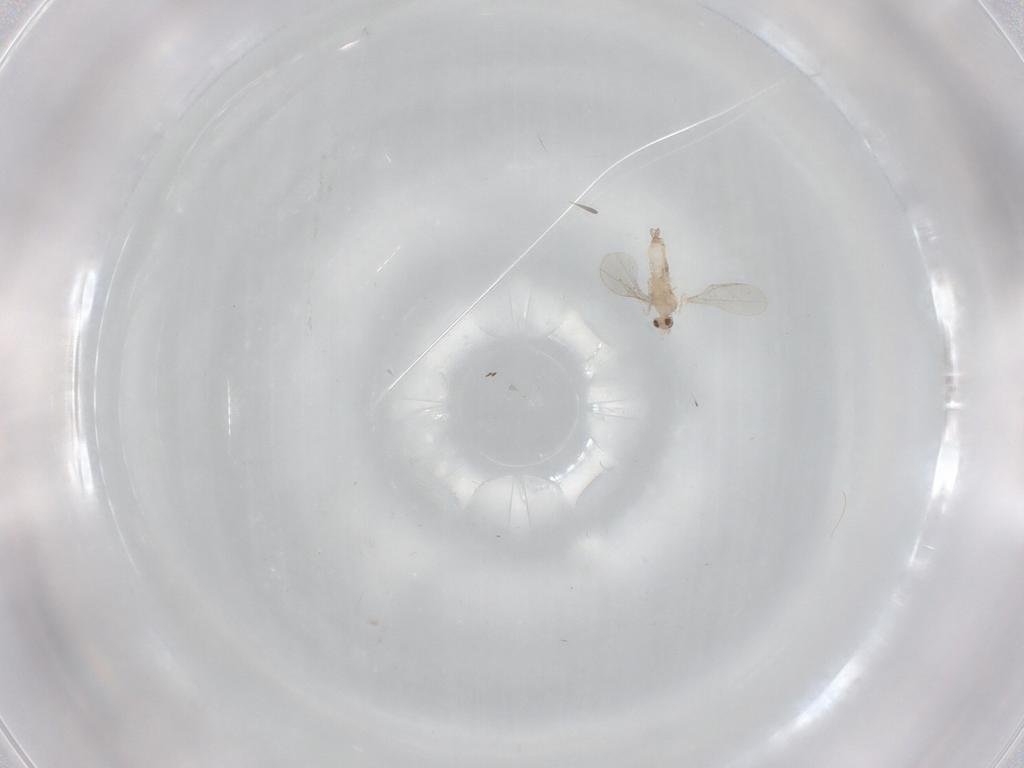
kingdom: Animalia
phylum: Arthropoda
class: Insecta
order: Diptera
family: Cecidomyiidae
